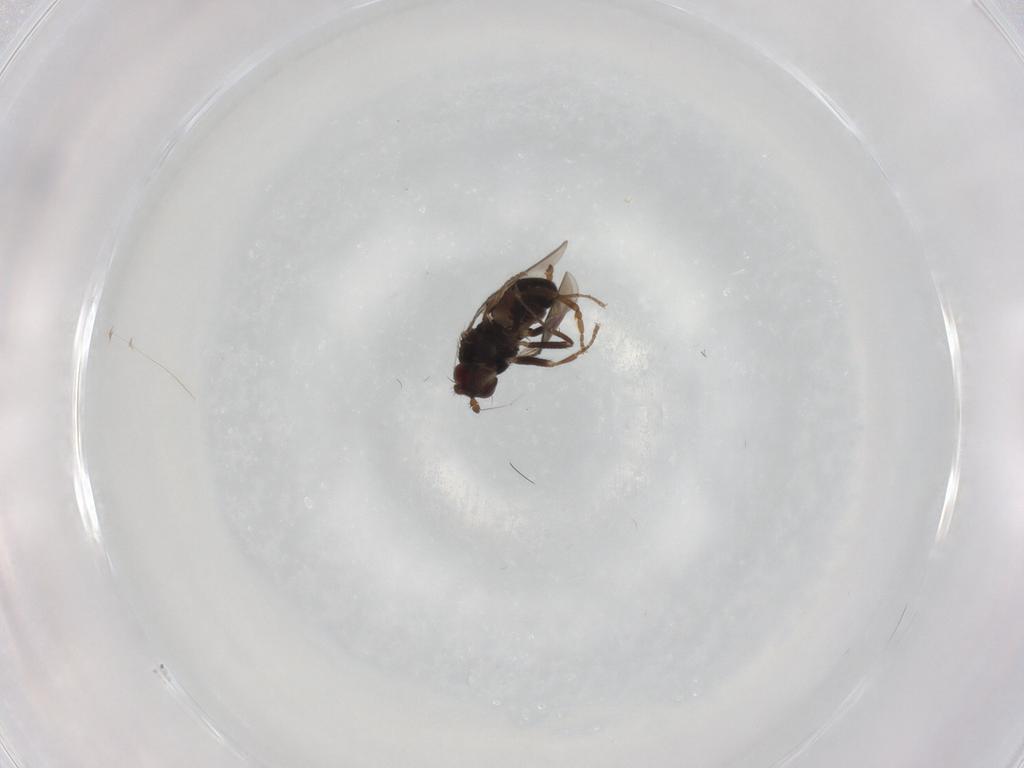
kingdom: Animalia
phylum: Arthropoda
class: Insecta
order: Diptera
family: Sphaeroceridae
